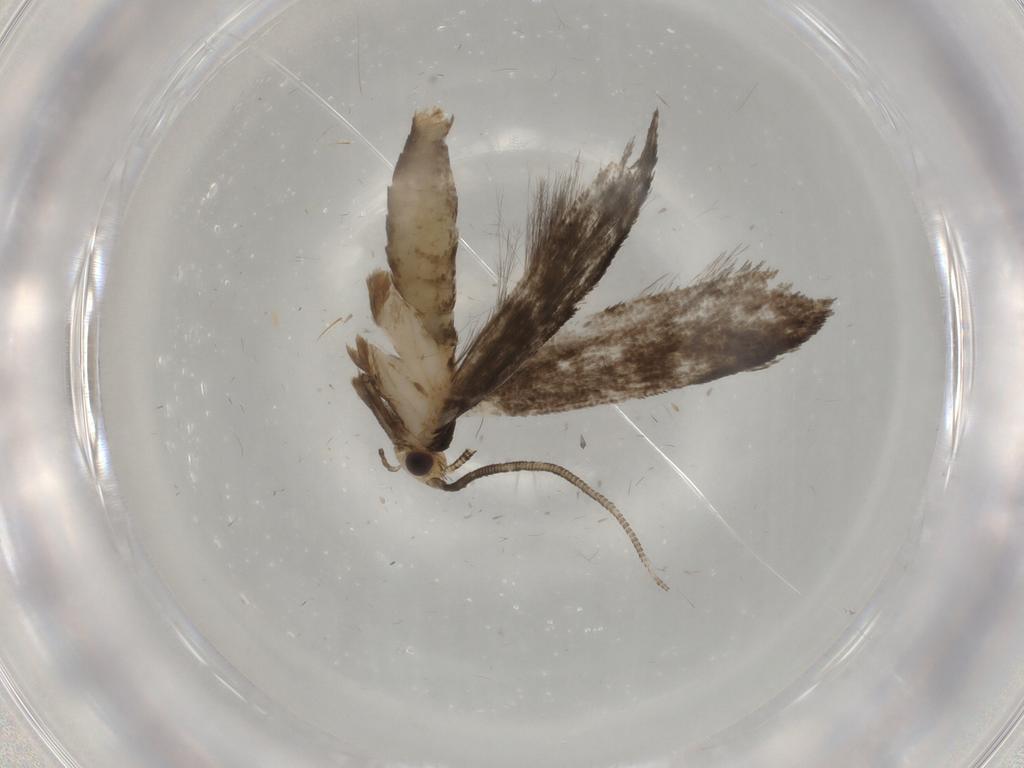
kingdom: Animalia
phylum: Arthropoda
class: Insecta
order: Lepidoptera
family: Tineidae
